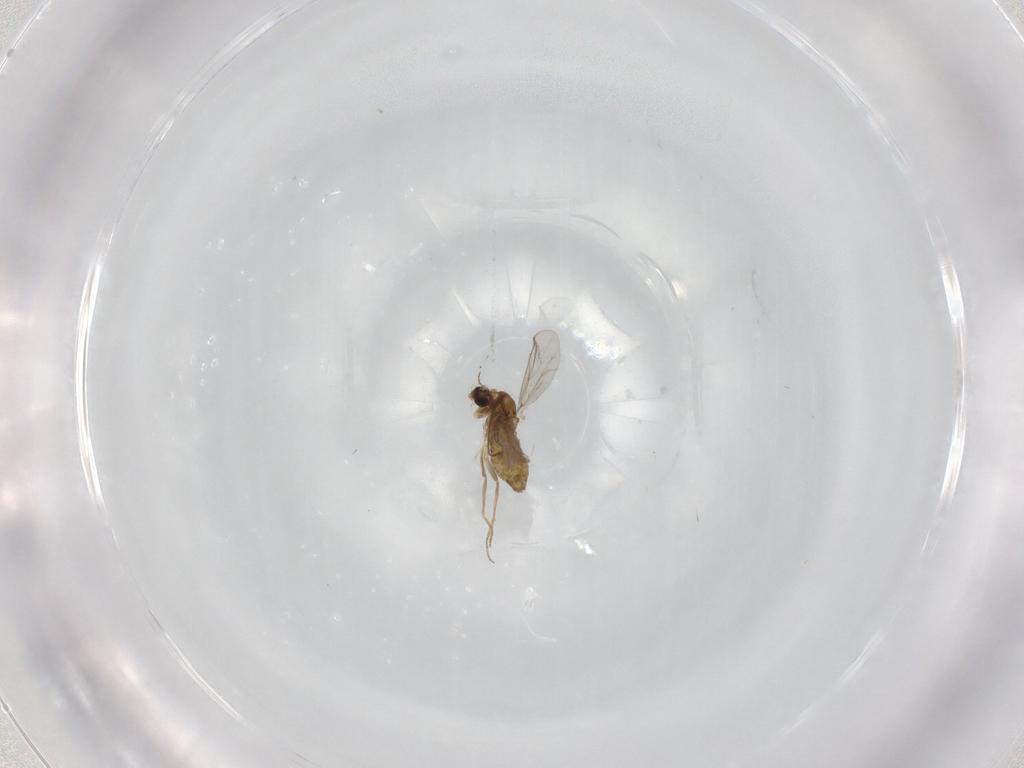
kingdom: Animalia
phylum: Arthropoda
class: Insecta
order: Diptera
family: Chironomidae
